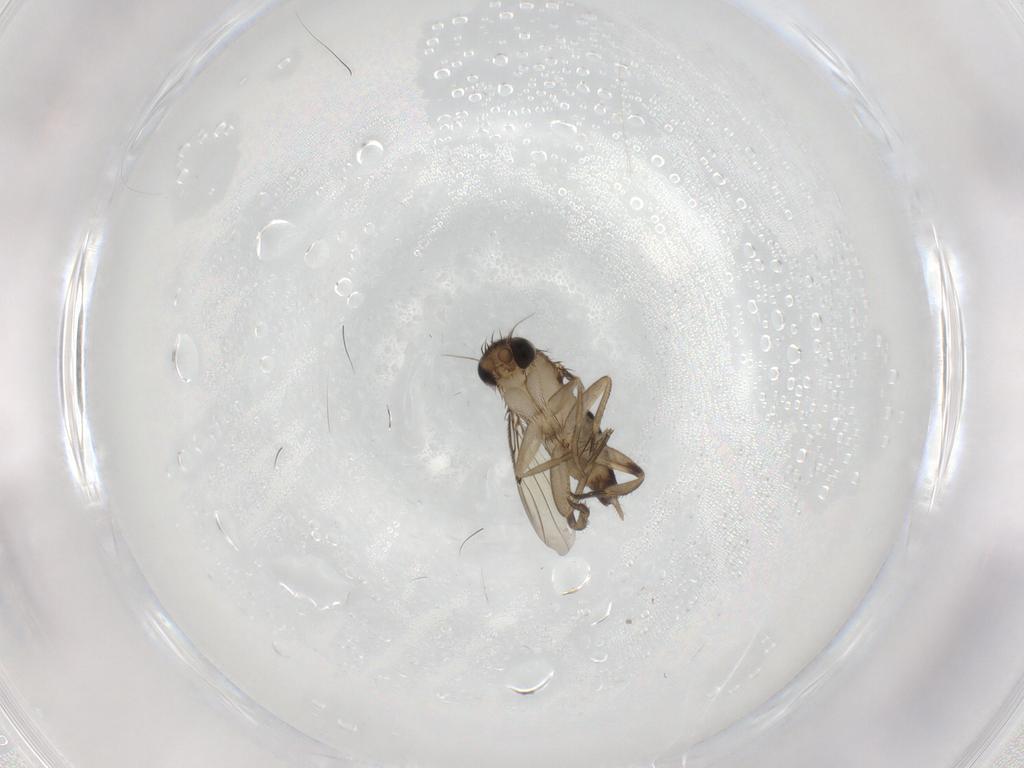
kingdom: Animalia
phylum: Arthropoda
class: Insecta
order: Diptera
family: Phoridae
